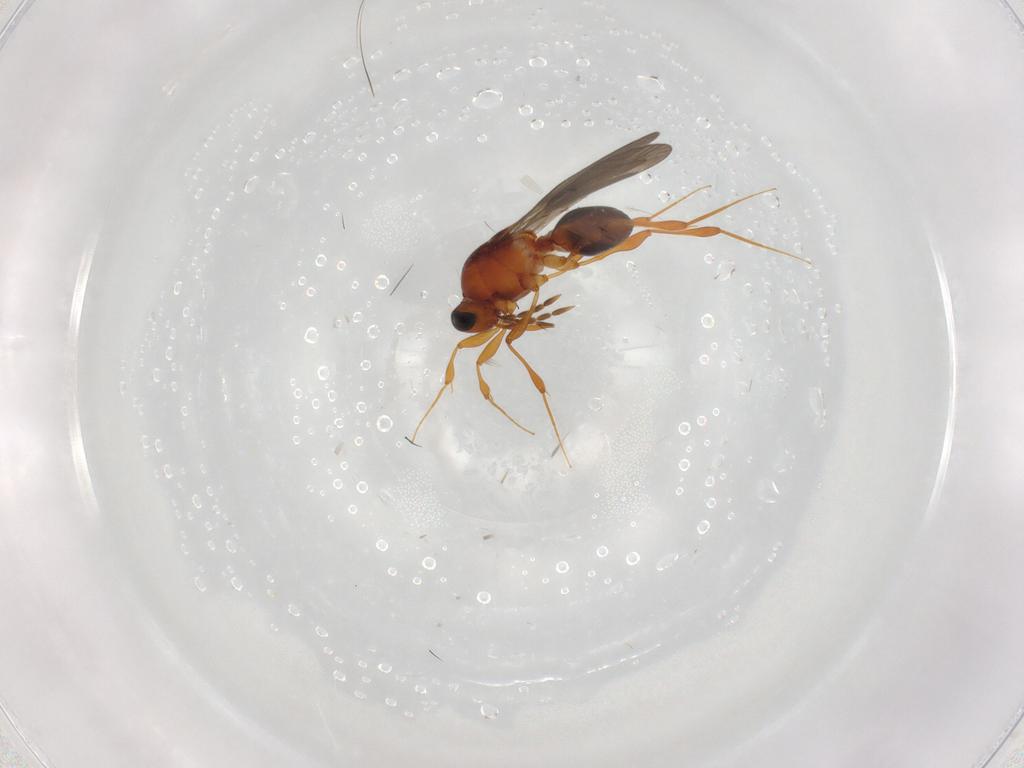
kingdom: Animalia
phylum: Arthropoda
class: Insecta
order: Hymenoptera
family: Platygastridae
